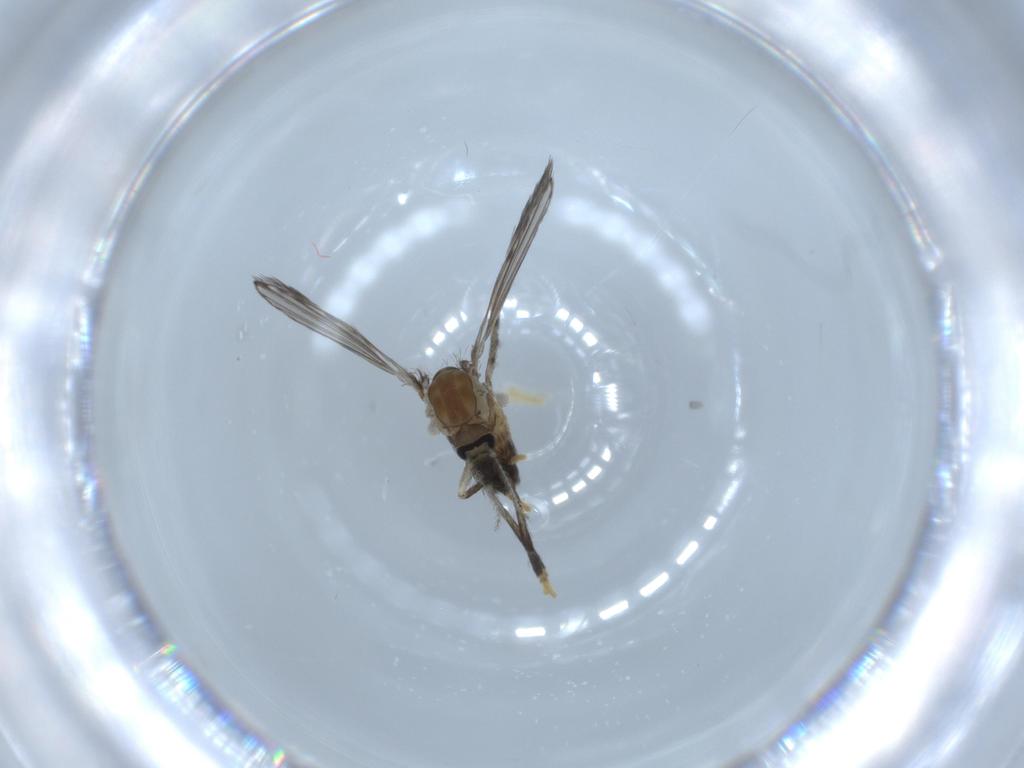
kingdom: Animalia
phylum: Arthropoda
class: Insecta
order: Diptera
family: Psychodidae
